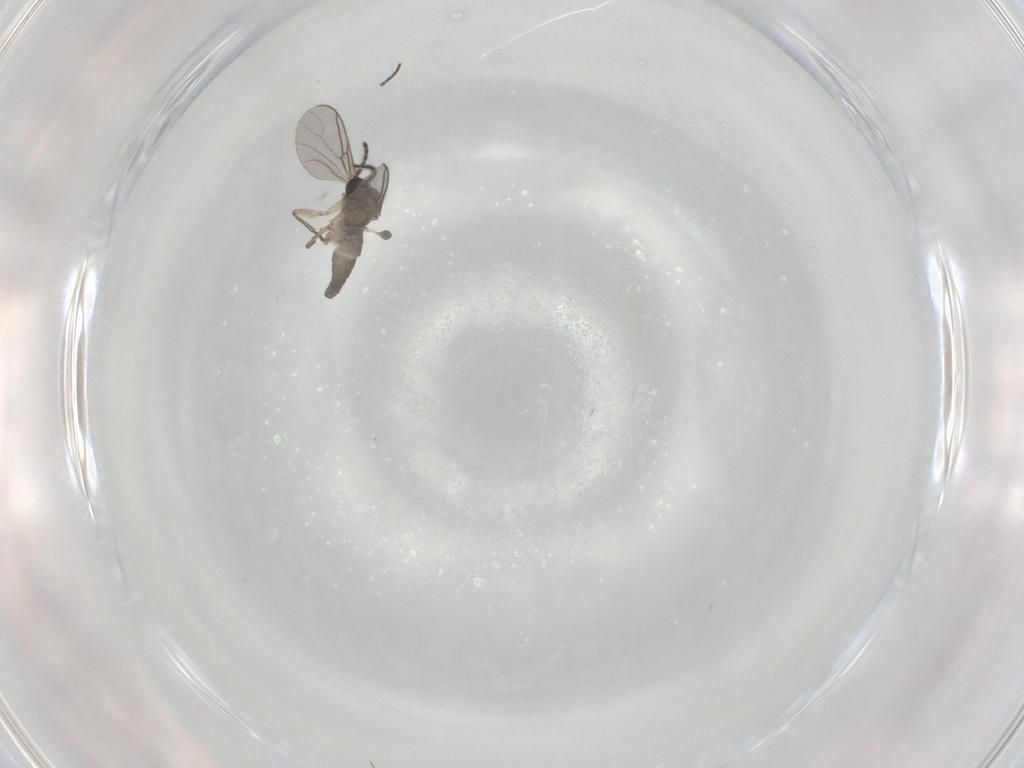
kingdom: Animalia
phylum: Arthropoda
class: Insecta
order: Diptera
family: Sciaridae
